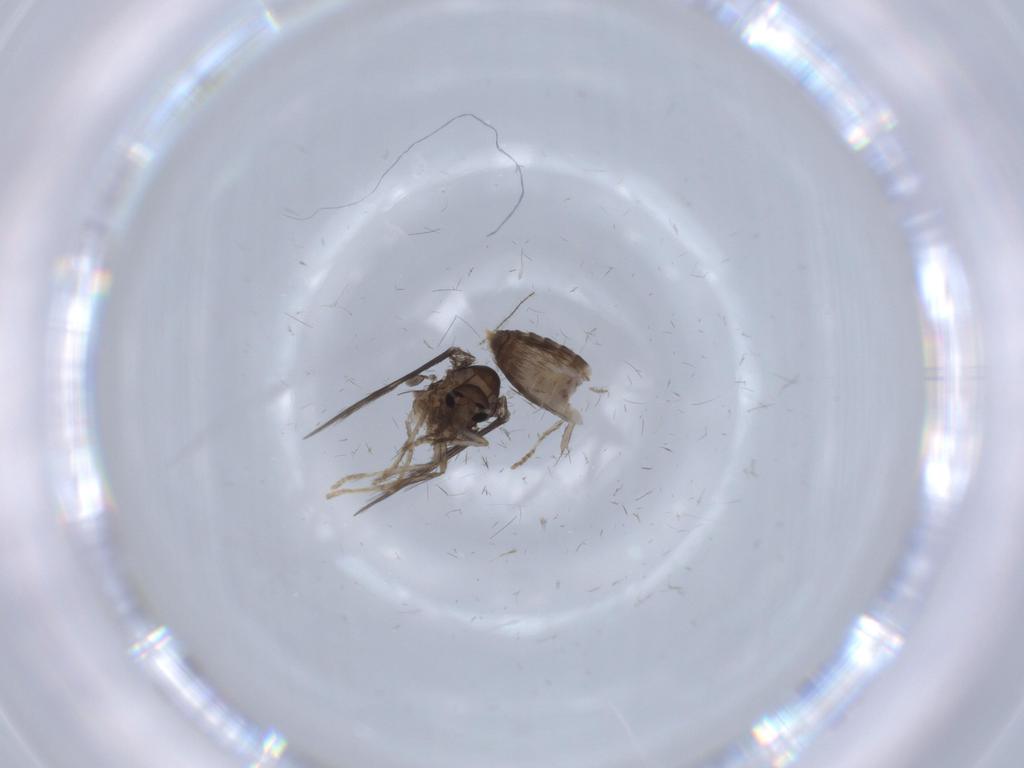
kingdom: Animalia
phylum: Arthropoda
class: Insecta
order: Diptera
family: Psychodidae
